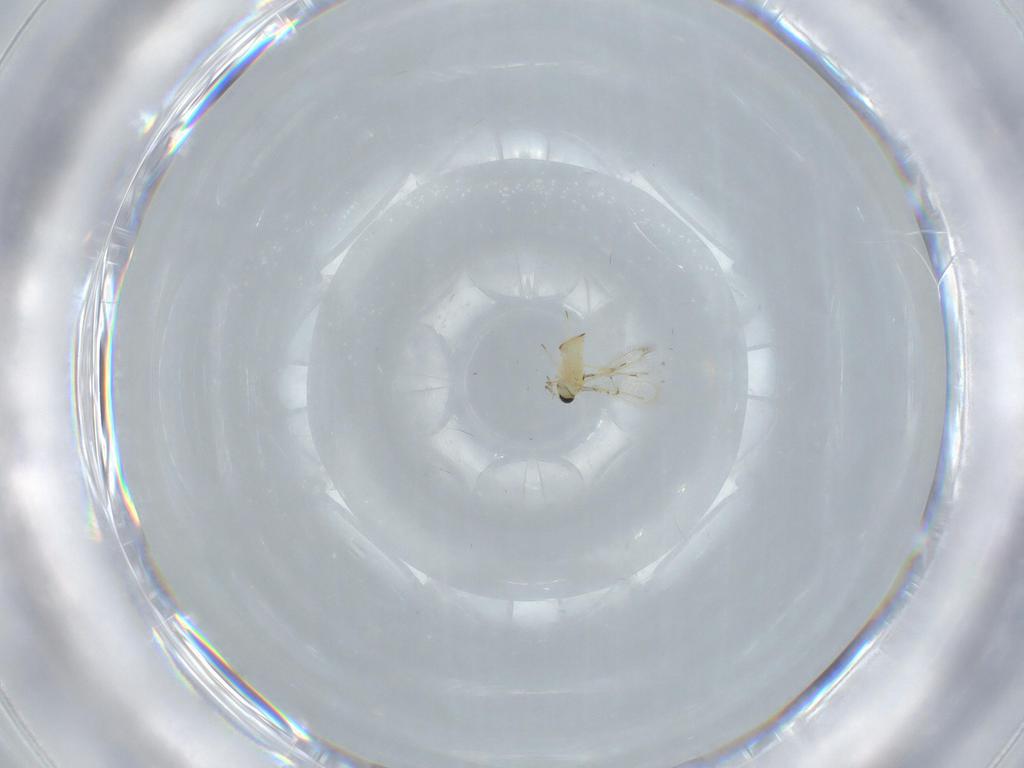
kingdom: Animalia
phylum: Arthropoda
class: Insecta
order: Hymenoptera
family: Trichogrammatidae
